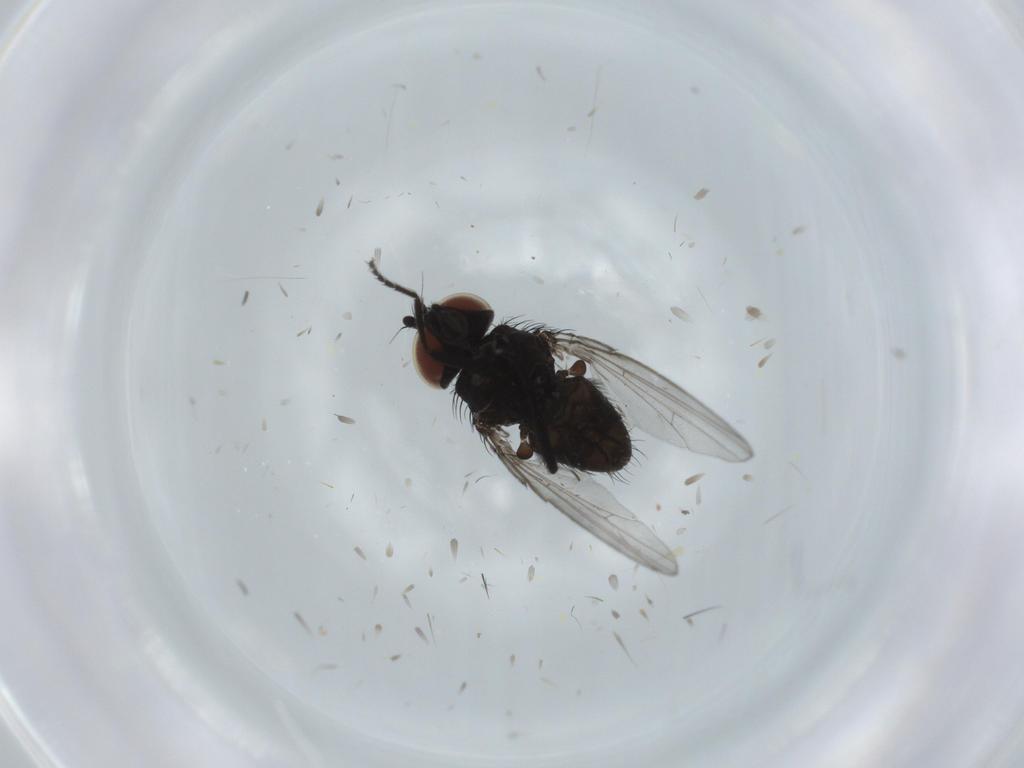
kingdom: Animalia
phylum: Arthropoda
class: Insecta
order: Diptera
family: Milichiidae
